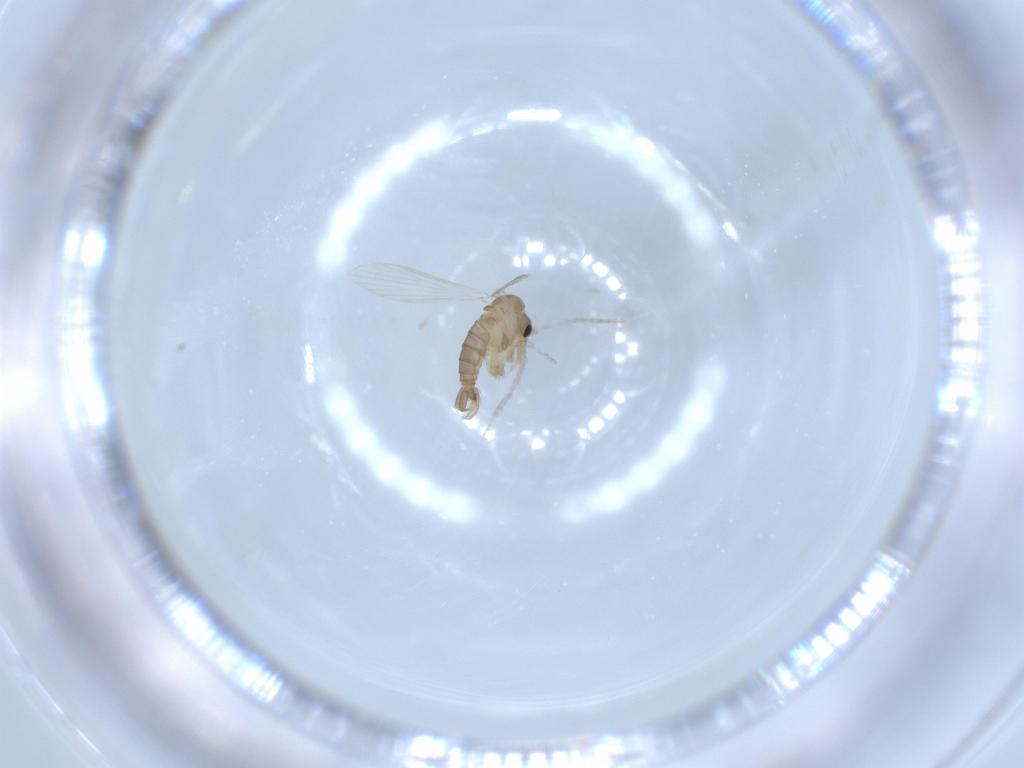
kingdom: Animalia
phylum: Arthropoda
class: Insecta
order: Diptera
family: Psychodidae
